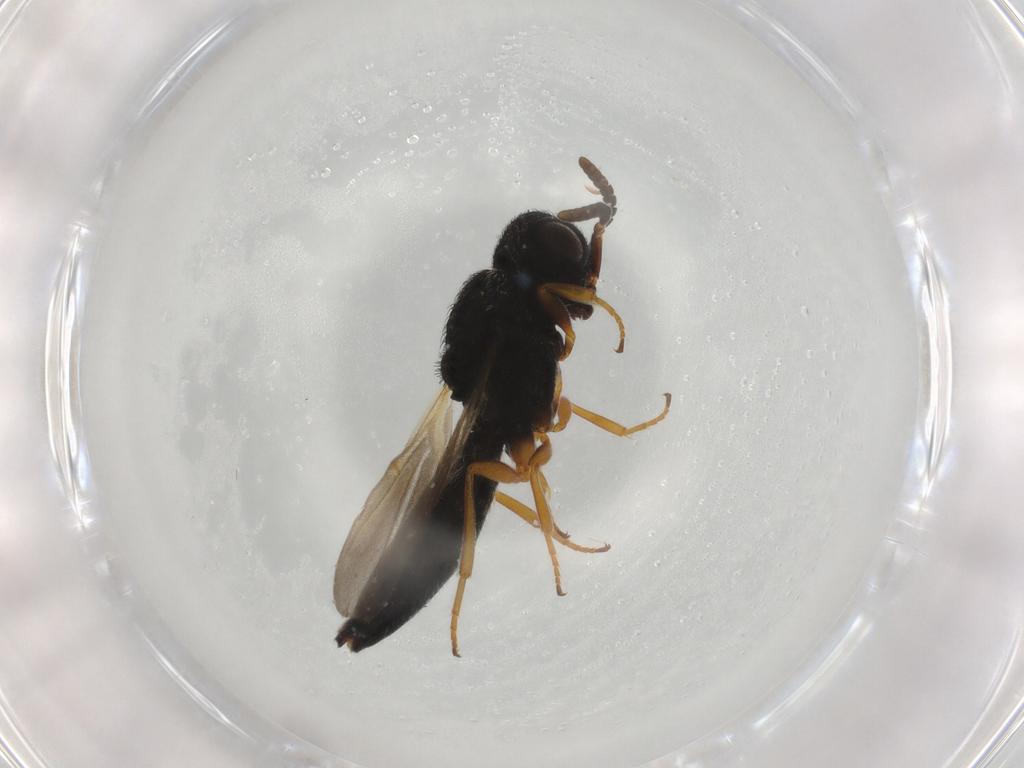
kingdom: Animalia
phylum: Arthropoda
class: Insecta
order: Hymenoptera
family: Scelionidae
